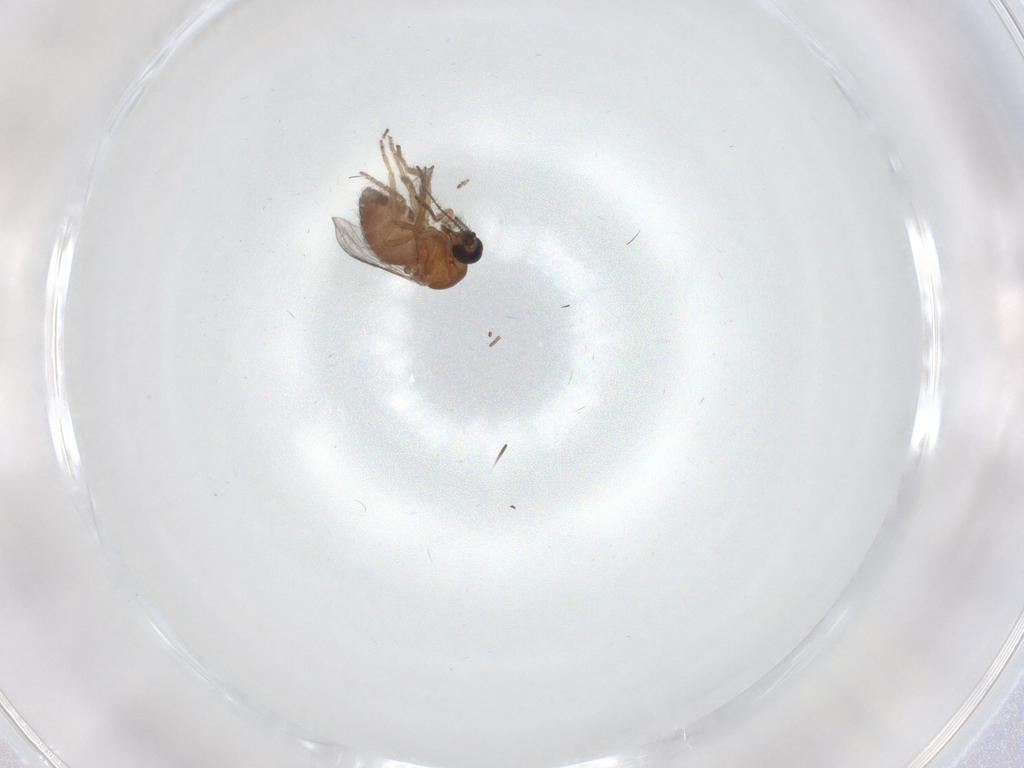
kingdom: Animalia
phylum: Arthropoda
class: Insecta
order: Diptera
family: Ceratopogonidae
